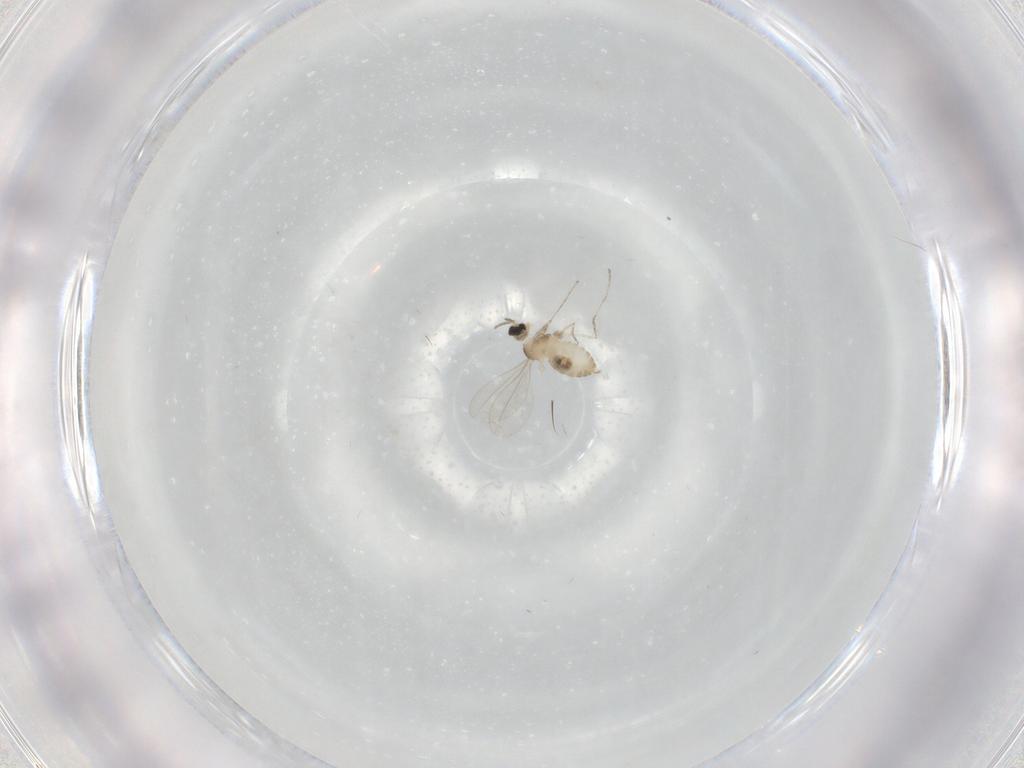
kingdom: Animalia
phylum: Arthropoda
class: Insecta
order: Diptera
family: Cecidomyiidae
